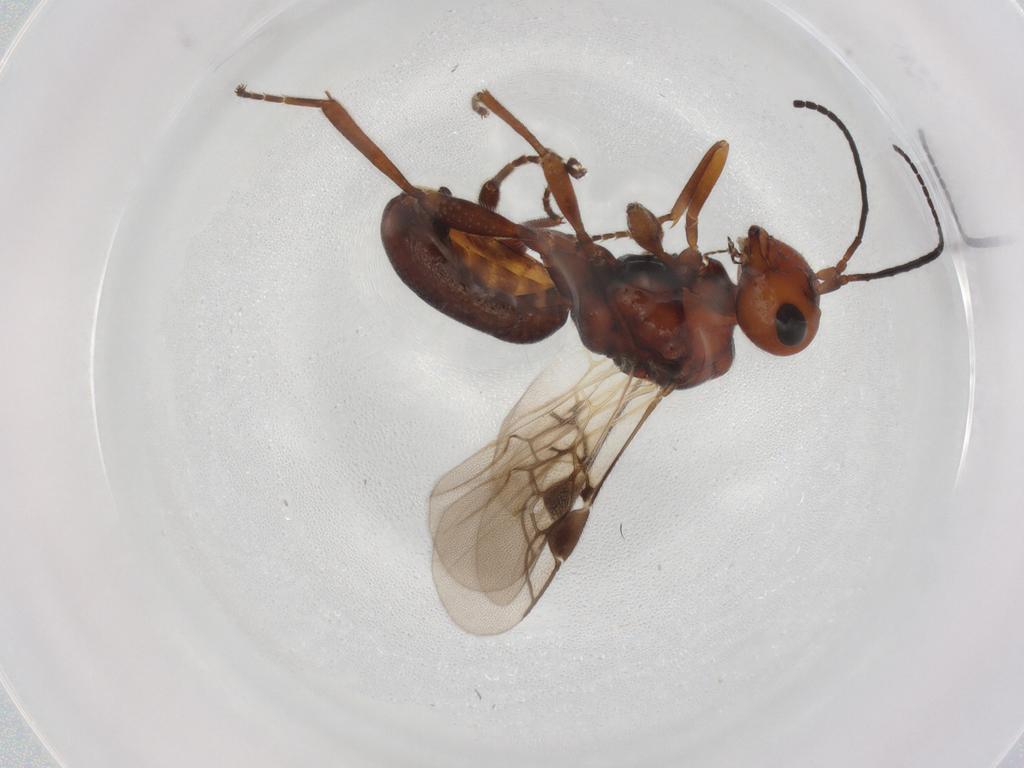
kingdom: Animalia
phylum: Arthropoda
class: Insecta
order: Hymenoptera
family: Braconidae
